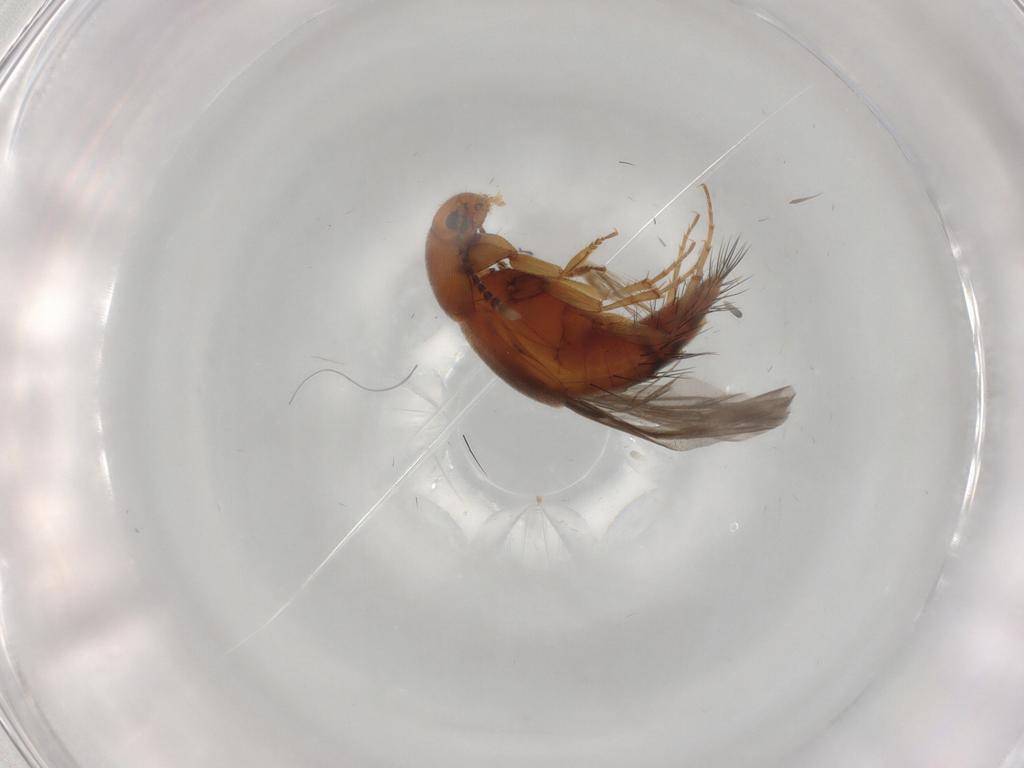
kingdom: Animalia
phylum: Arthropoda
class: Insecta
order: Coleoptera
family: Staphylinidae
